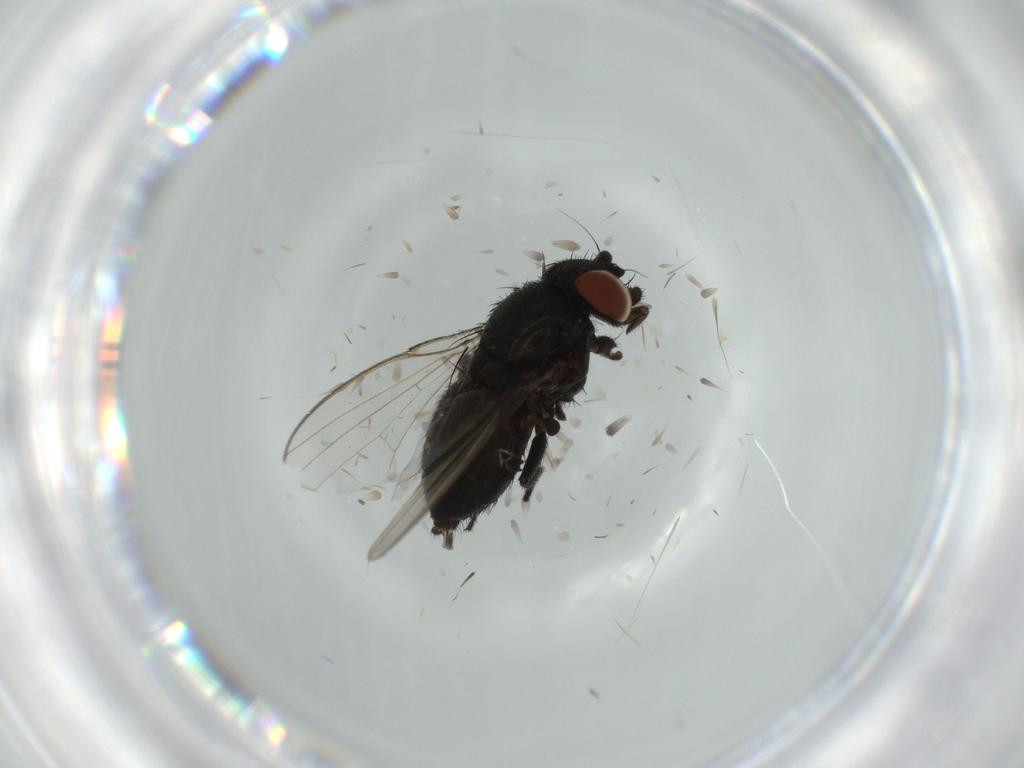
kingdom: Animalia
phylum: Arthropoda
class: Insecta
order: Diptera
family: Milichiidae
